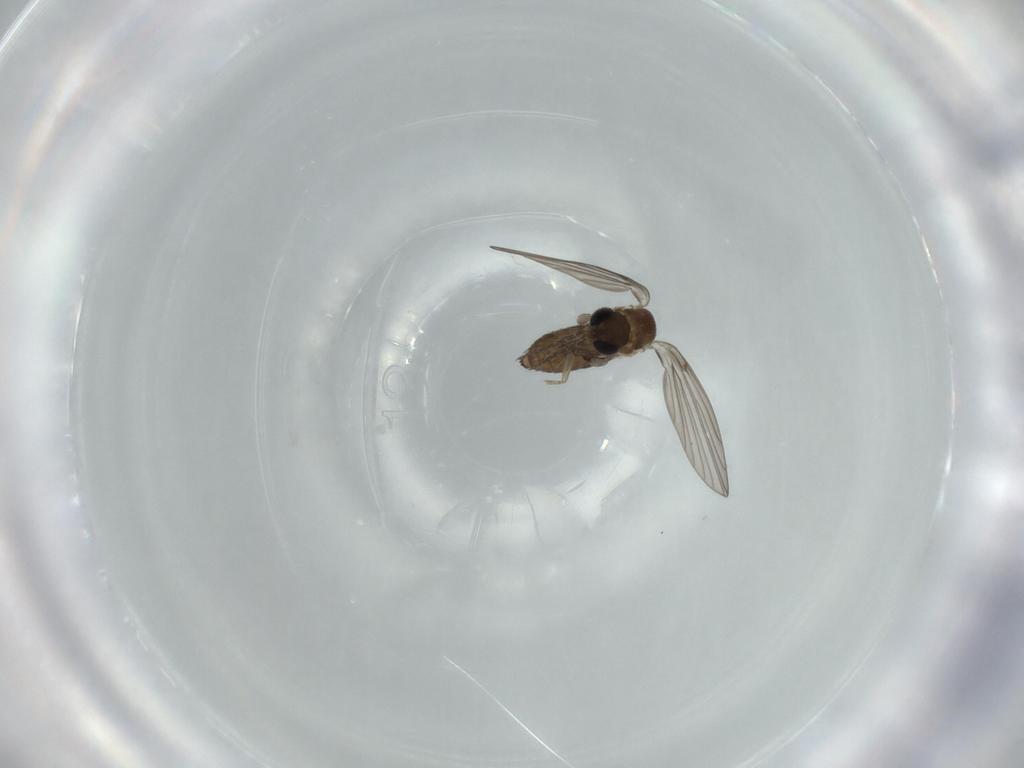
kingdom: Animalia
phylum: Arthropoda
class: Insecta
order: Diptera
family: Psychodidae
